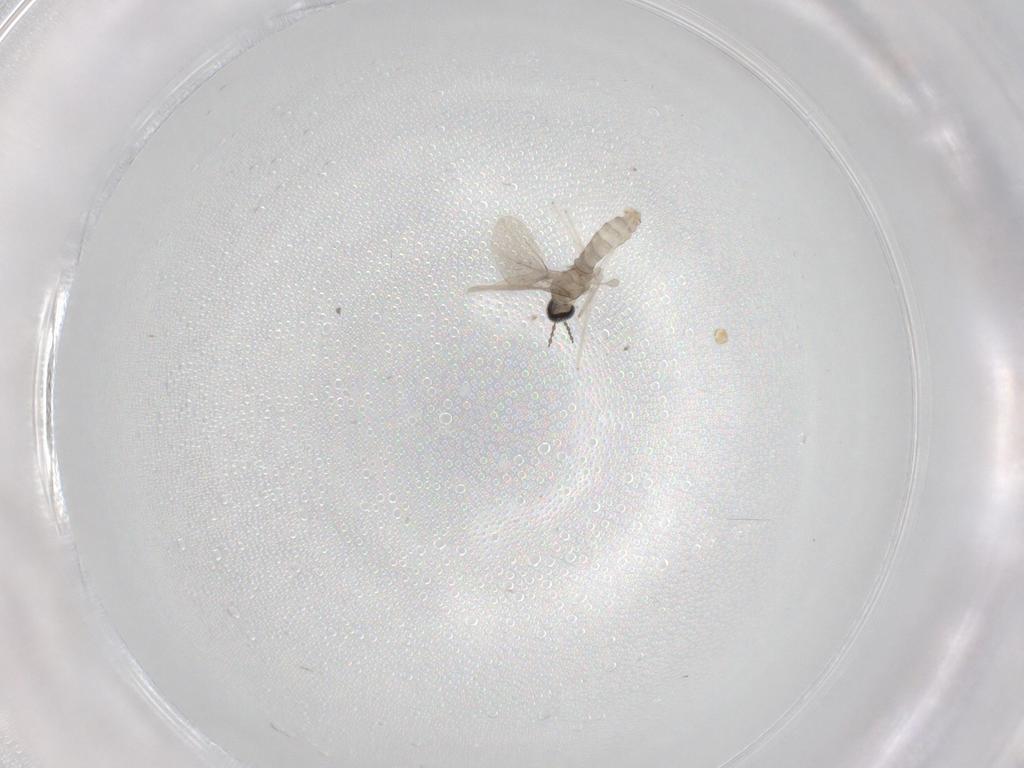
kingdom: Animalia
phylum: Arthropoda
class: Insecta
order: Diptera
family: Cecidomyiidae
